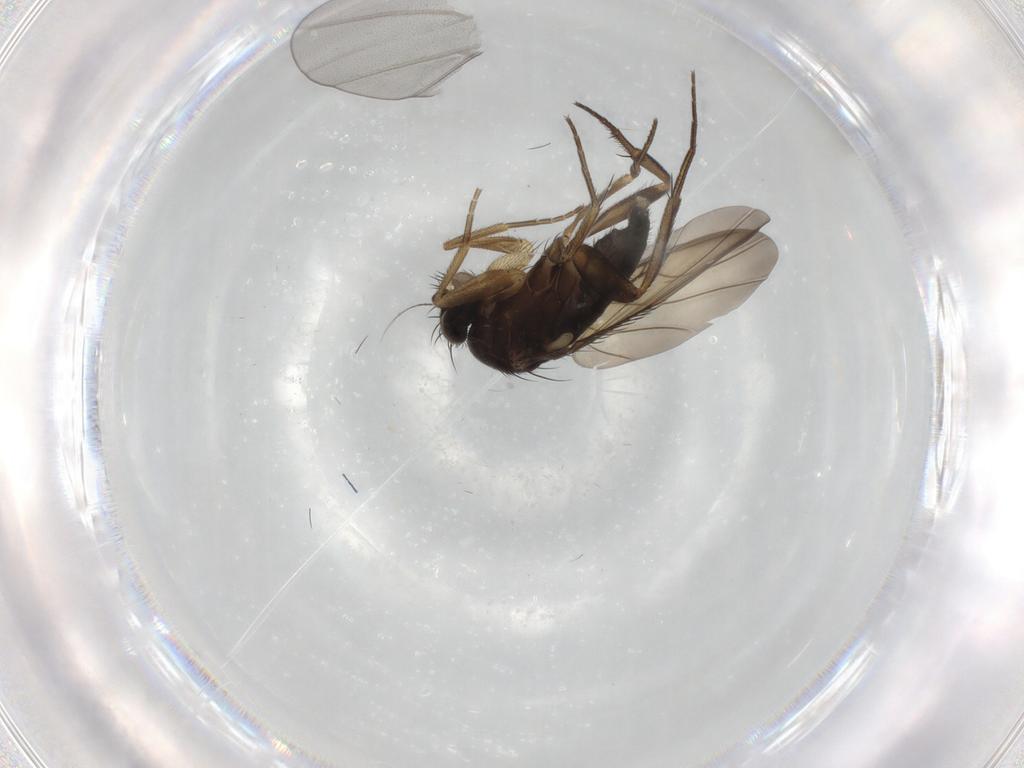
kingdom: Animalia
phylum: Arthropoda
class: Insecta
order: Diptera
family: Phoridae
